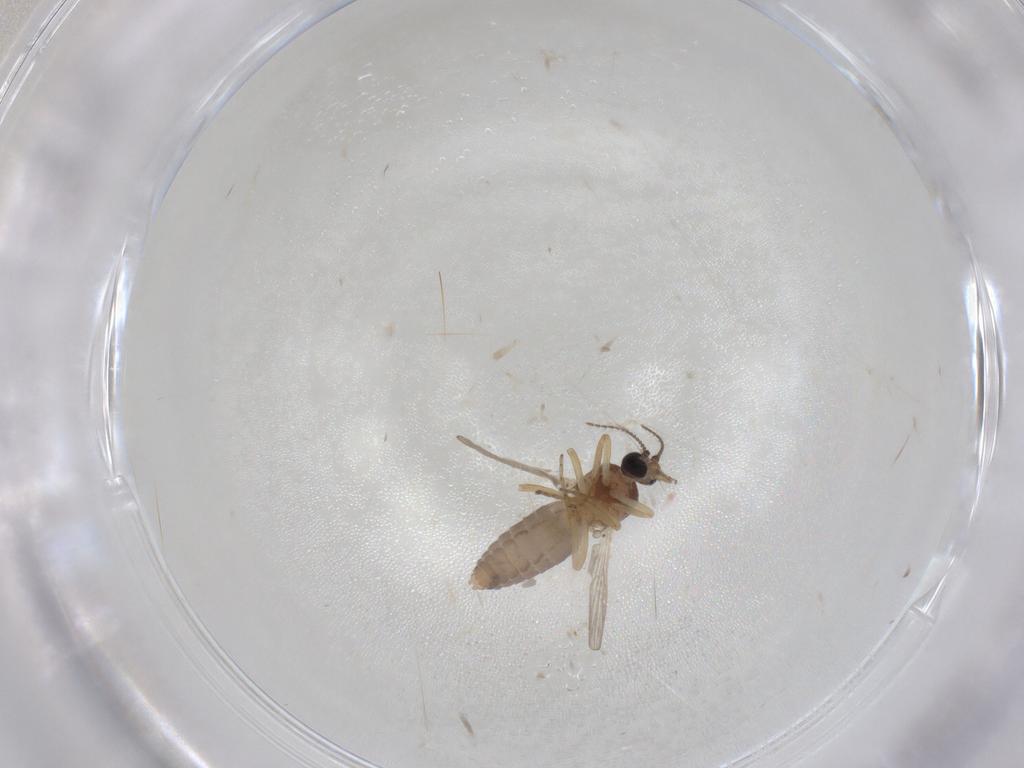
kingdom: Animalia
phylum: Arthropoda
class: Insecta
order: Diptera
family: Ceratopogonidae
